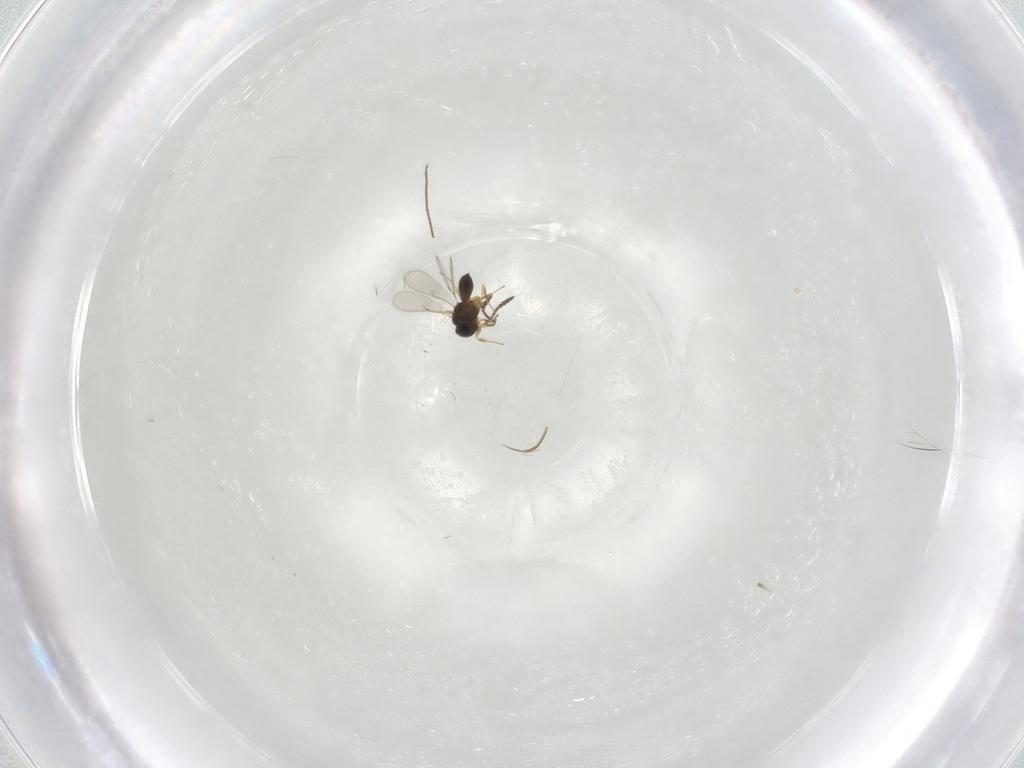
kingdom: Animalia
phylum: Arthropoda
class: Insecta
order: Hymenoptera
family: Scelionidae
